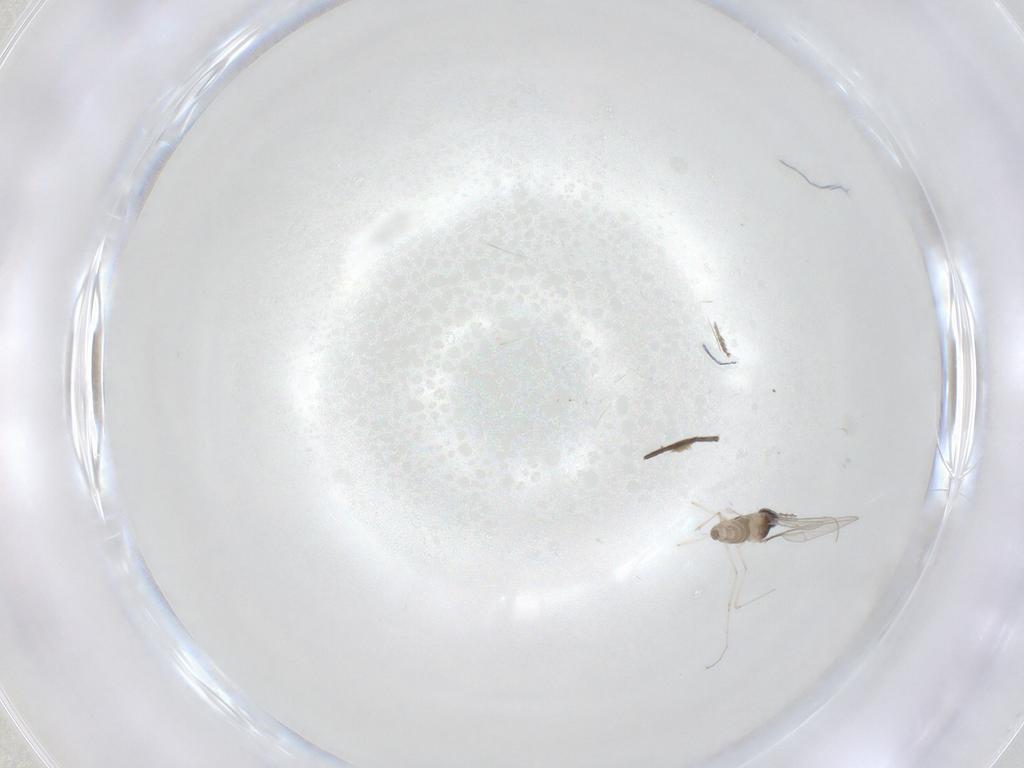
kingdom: Animalia
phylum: Arthropoda
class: Insecta
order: Diptera
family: Cecidomyiidae
